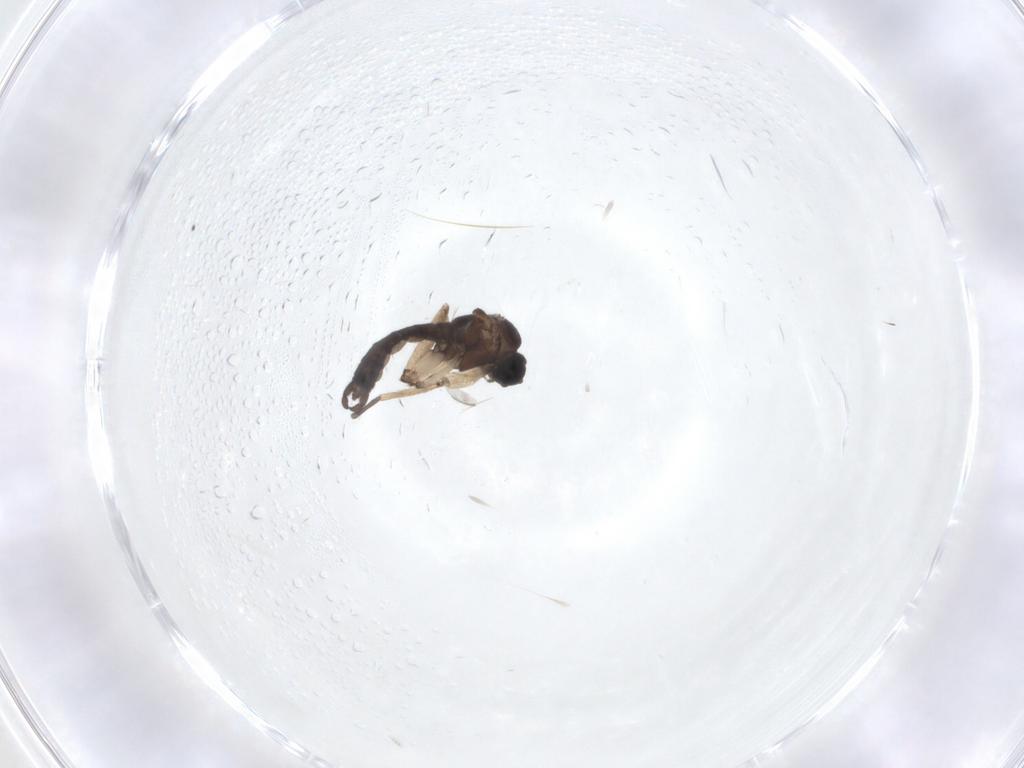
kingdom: Animalia
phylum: Arthropoda
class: Insecta
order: Diptera
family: Sciaridae
